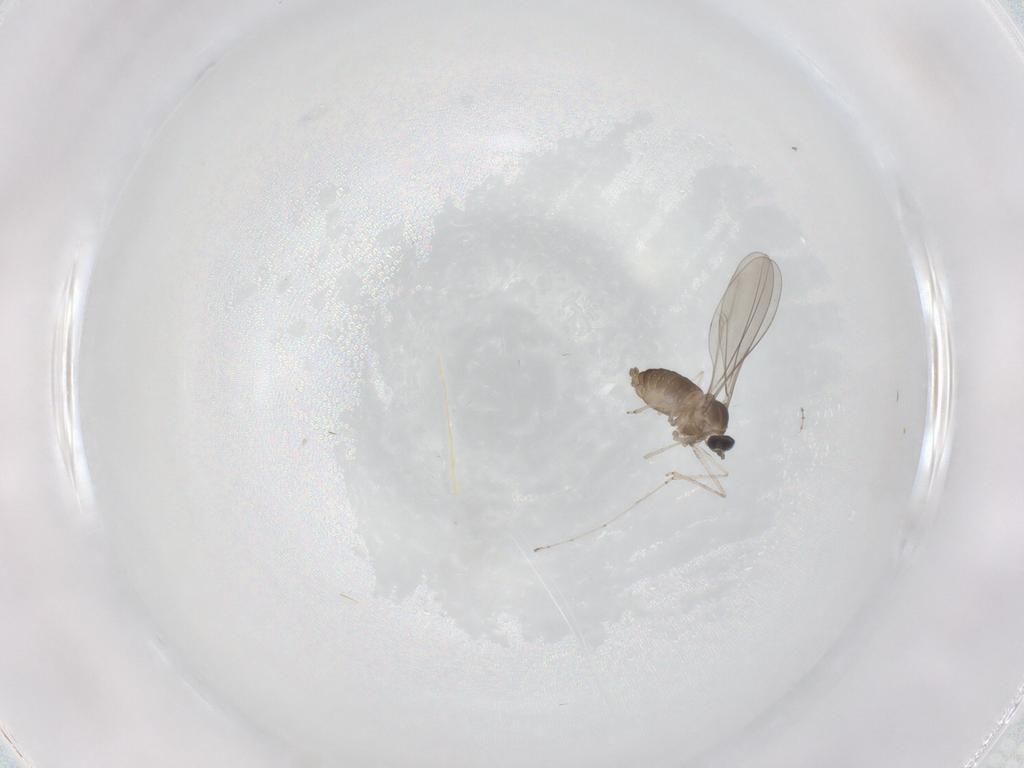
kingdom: Animalia
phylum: Arthropoda
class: Insecta
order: Diptera
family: Cecidomyiidae
